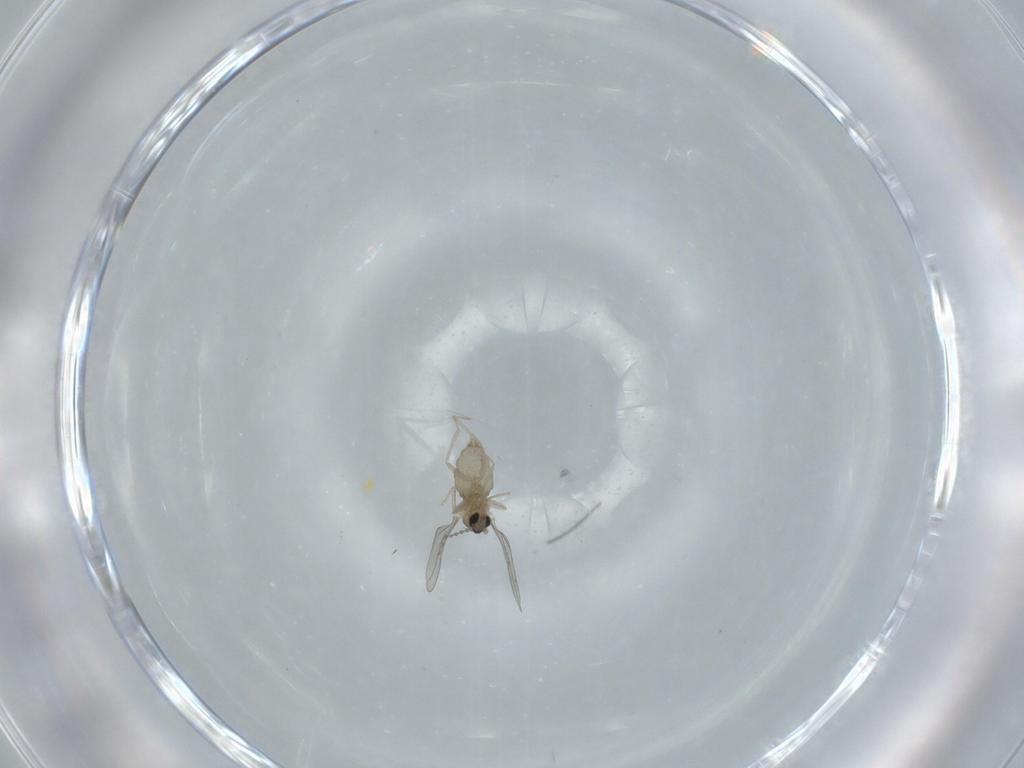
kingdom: Animalia
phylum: Arthropoda
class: Insecta
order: Diptera
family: Cecidomyiidae
